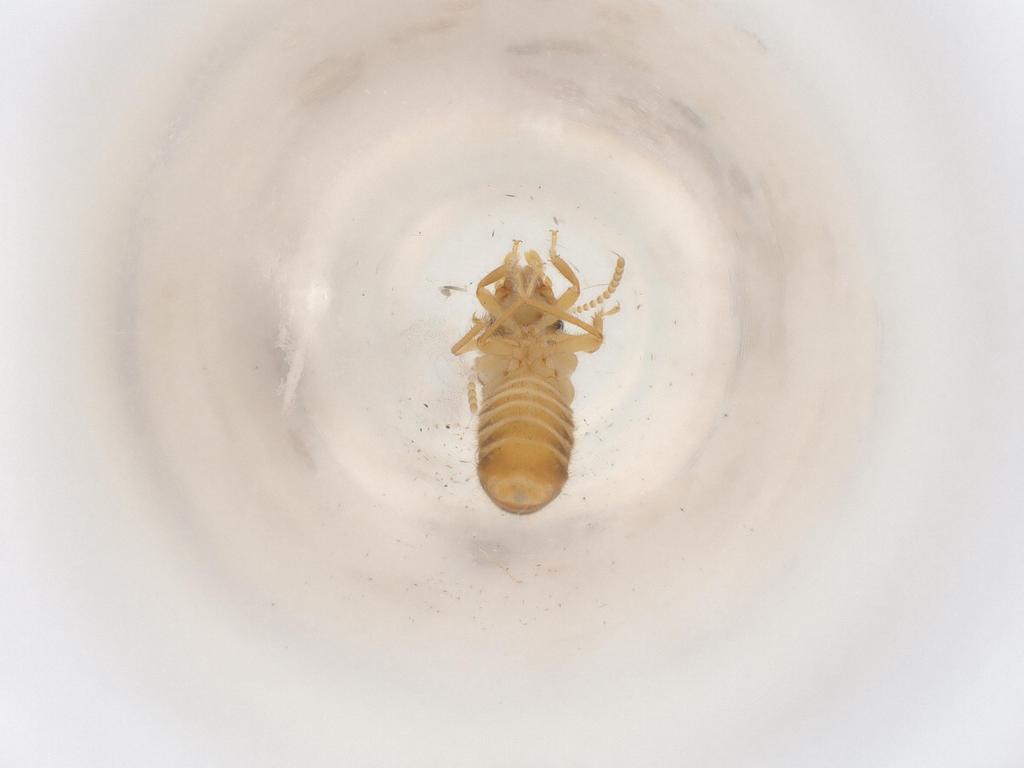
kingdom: Animalia
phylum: Arthropoda
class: Insecta
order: Blattodea
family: Termitidae
